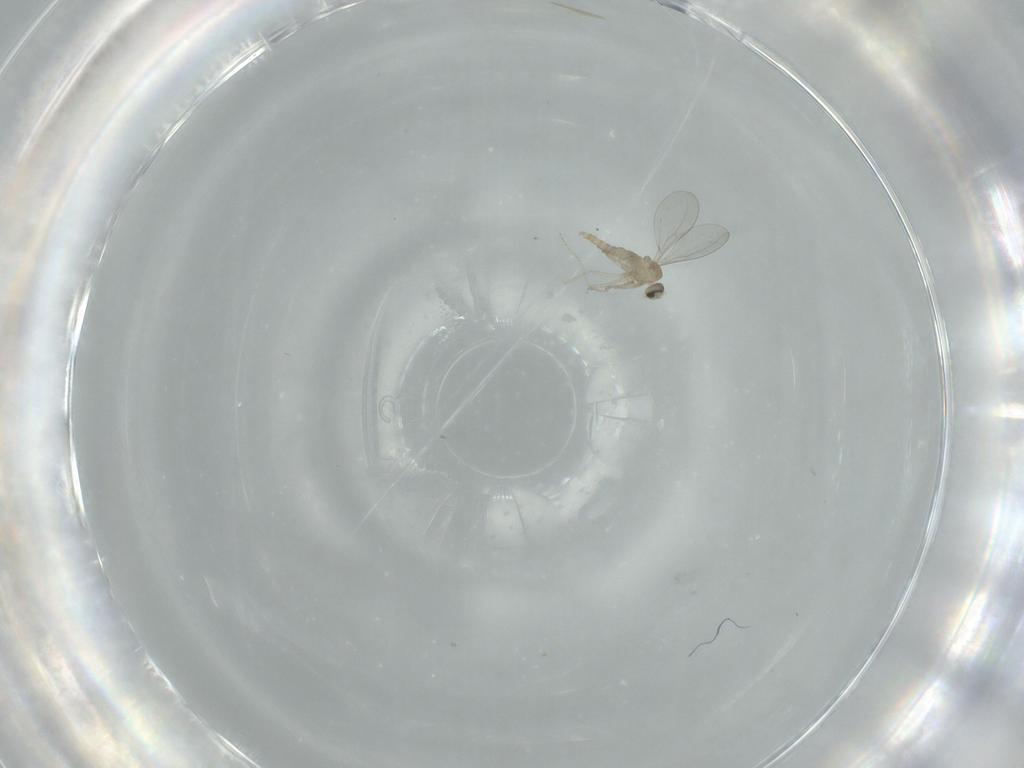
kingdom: Animalia
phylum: Arthropoda
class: Insecta
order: Diptera
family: Cecidomyiidae
